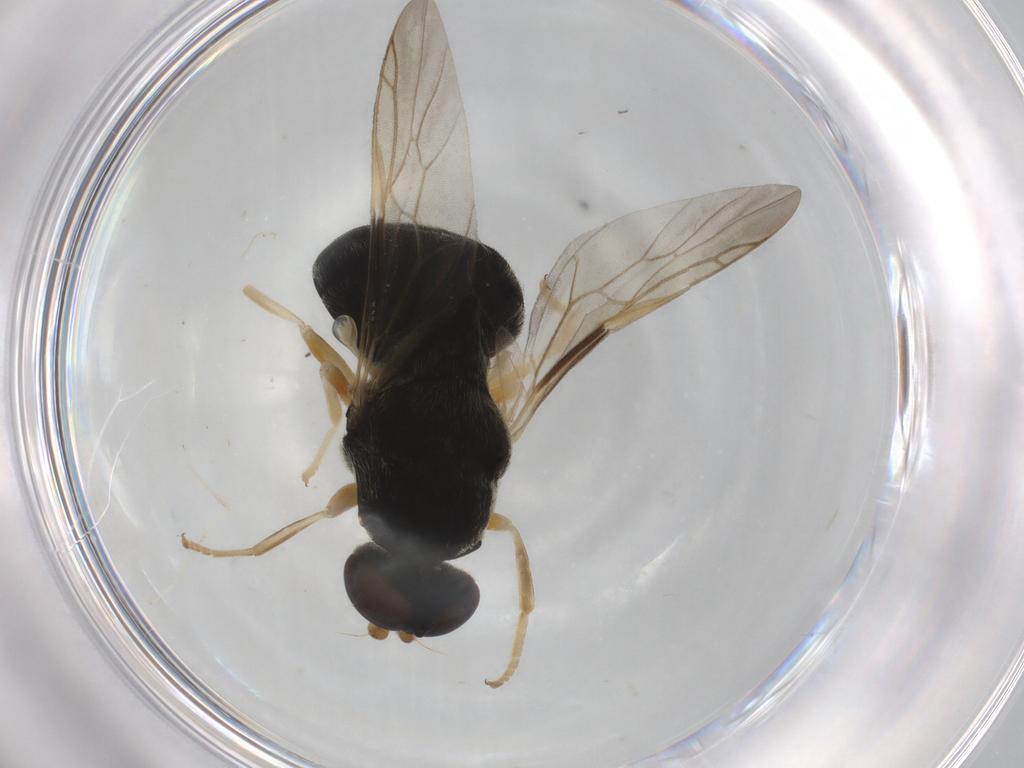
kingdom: Animalia
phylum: Arthropoda
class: Insecta
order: Diptera
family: Stratiomyidae
